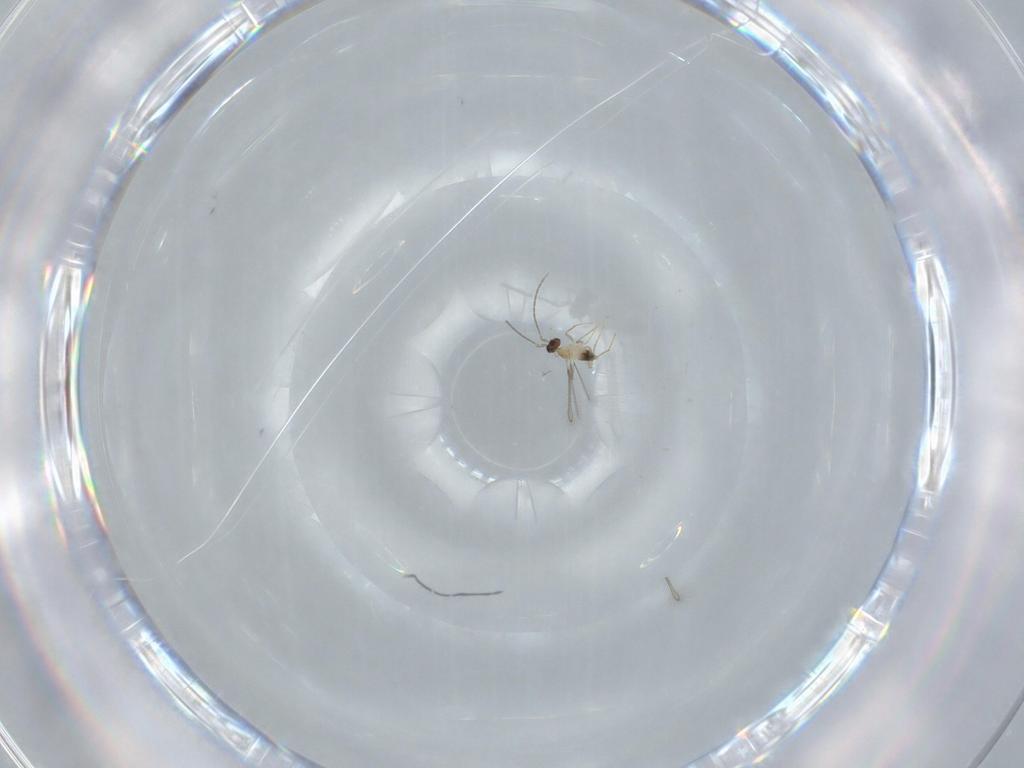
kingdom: Animalia
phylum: Arthropoda
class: Insecta
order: Hymenoptera
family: Mymaridae
